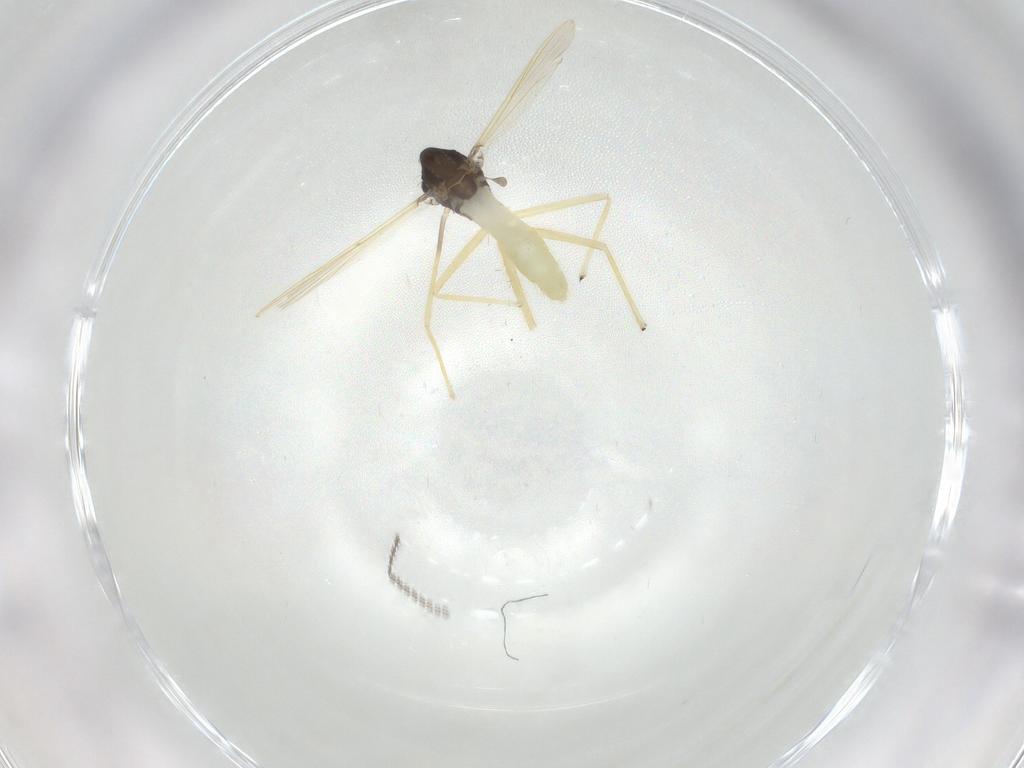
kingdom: Animalia
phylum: Arthropoda
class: Insecta
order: Diptera
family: Chironomidae
